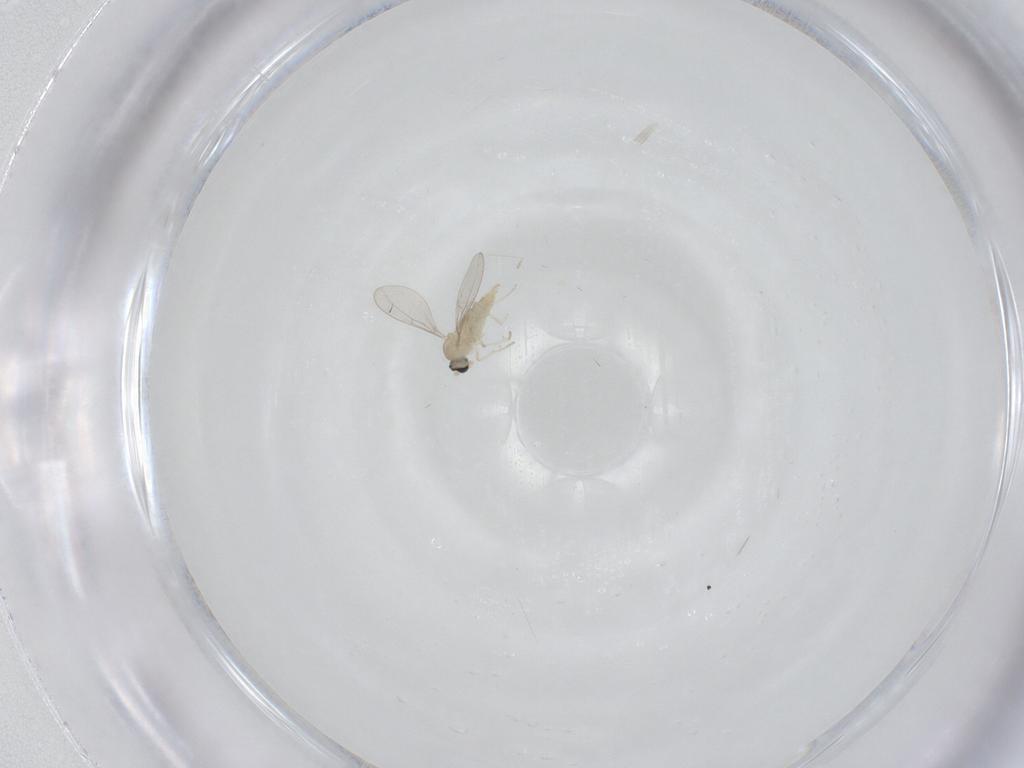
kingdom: Animalia
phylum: Arthropoda
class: Insecta
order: Diptera
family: Cecidomyiidae
